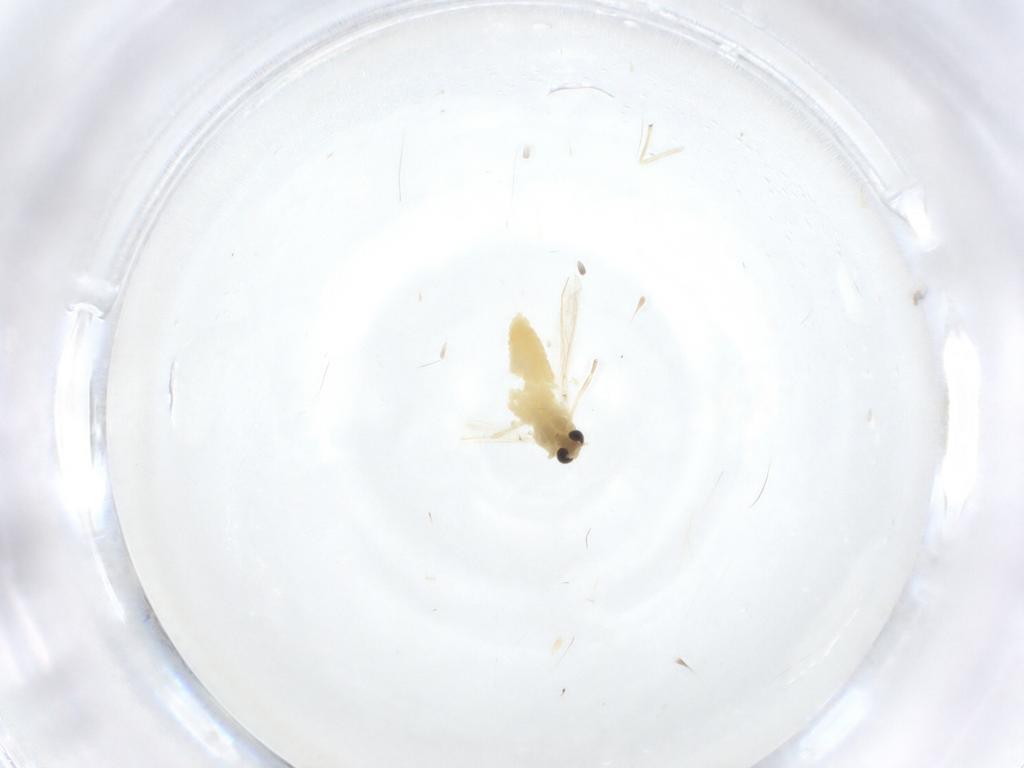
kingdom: Animalia
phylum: Arthropoda
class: Insecta
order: Diptera
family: Chironomidae
